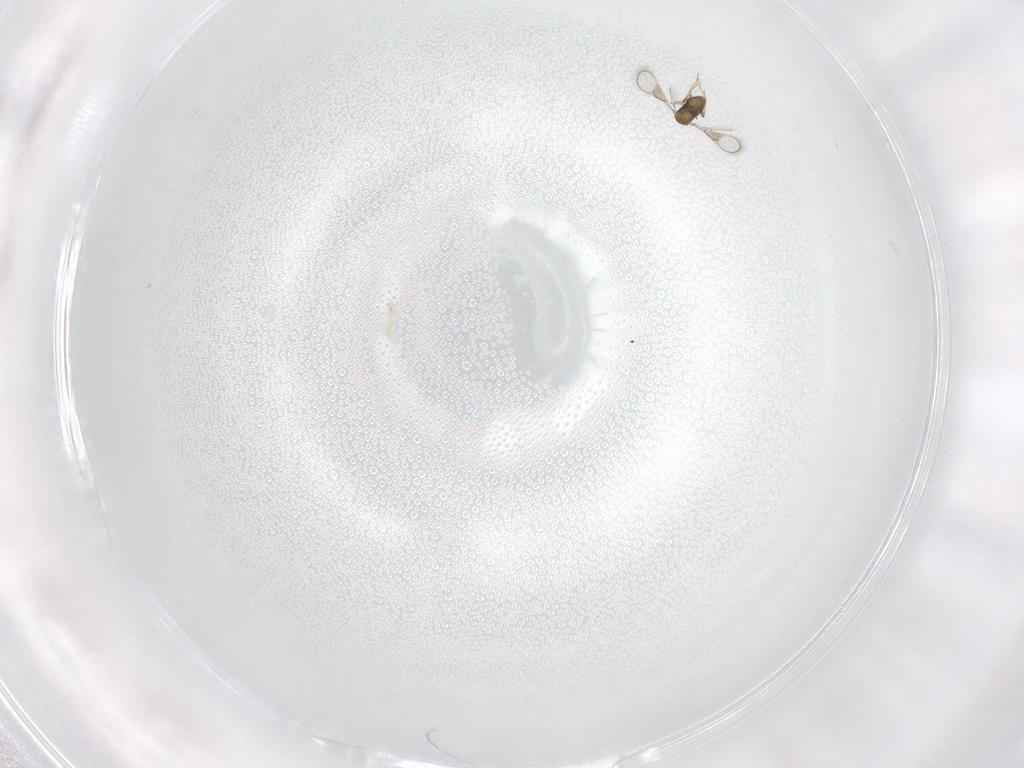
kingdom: Animalia
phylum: Arthropoda
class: Insecta
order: Hymenoptera
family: Trichogrammatidae
